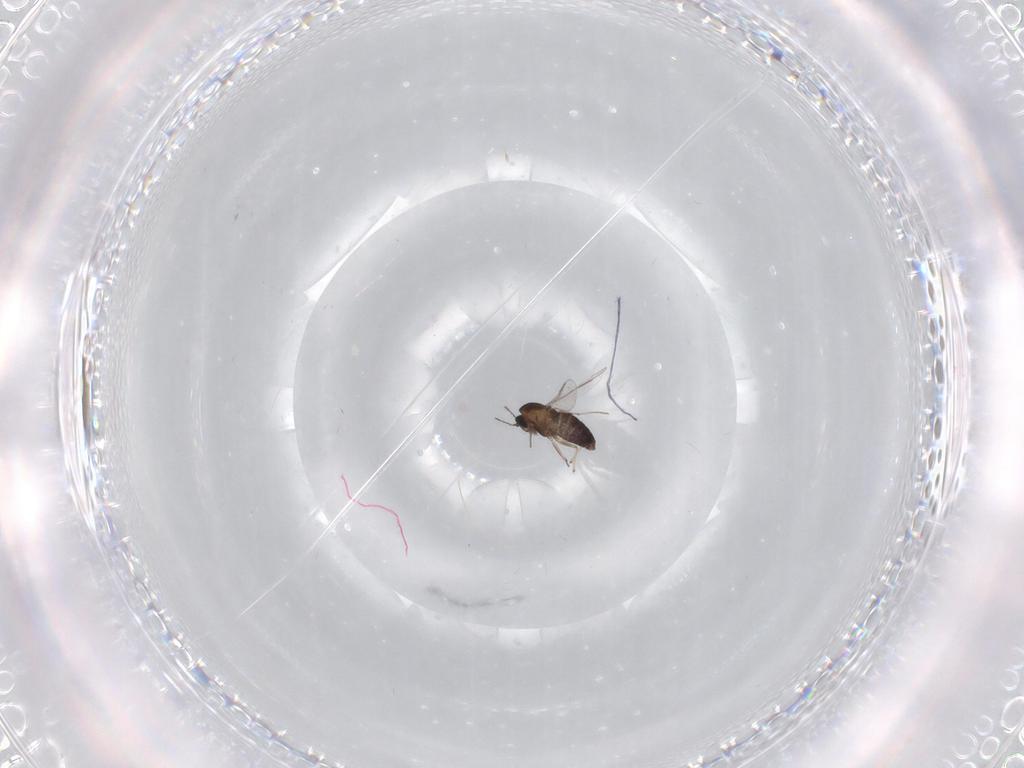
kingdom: Animalia
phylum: Arthropoda
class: Insecta
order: Diptera
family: Chironomidae
